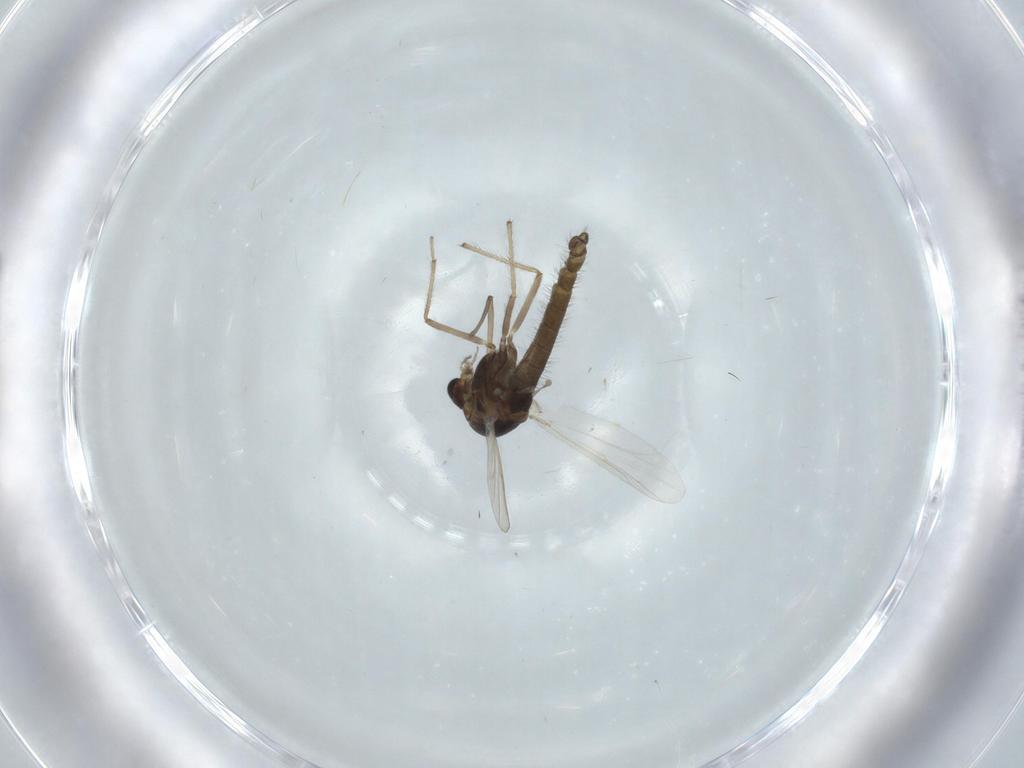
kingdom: Animalia
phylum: Arthropoda
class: Insecta
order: Diptera
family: Chironomidae
